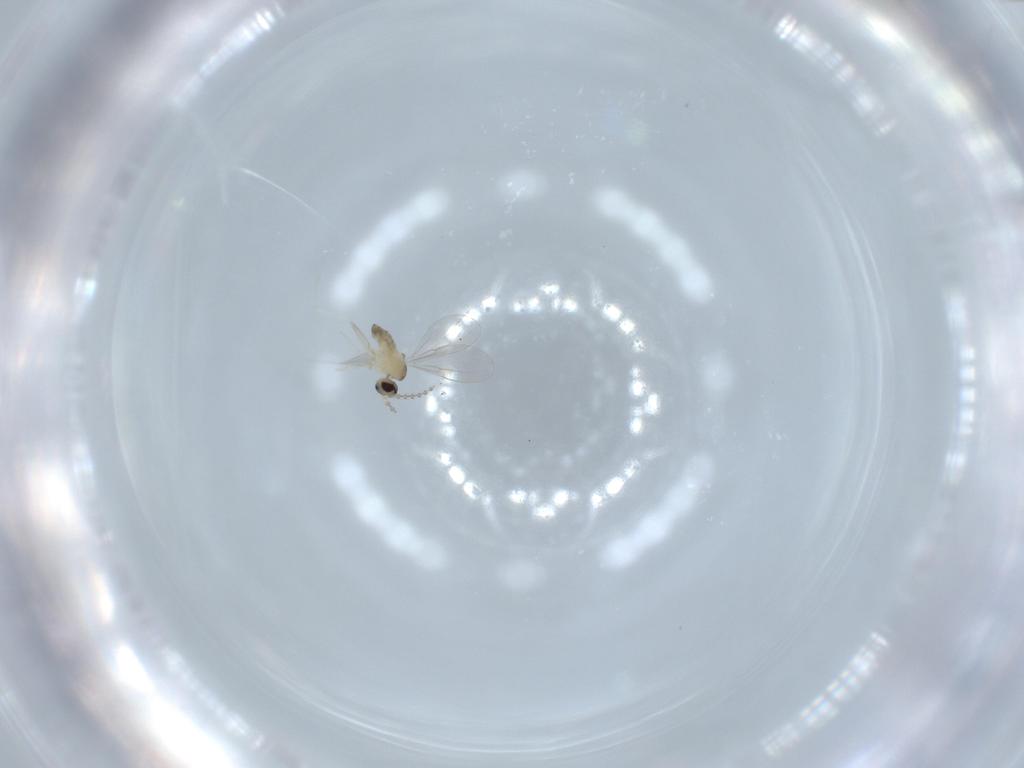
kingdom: Animalia
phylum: Arthropoda
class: Insecta
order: Diptera
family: Cecidomyiidae
